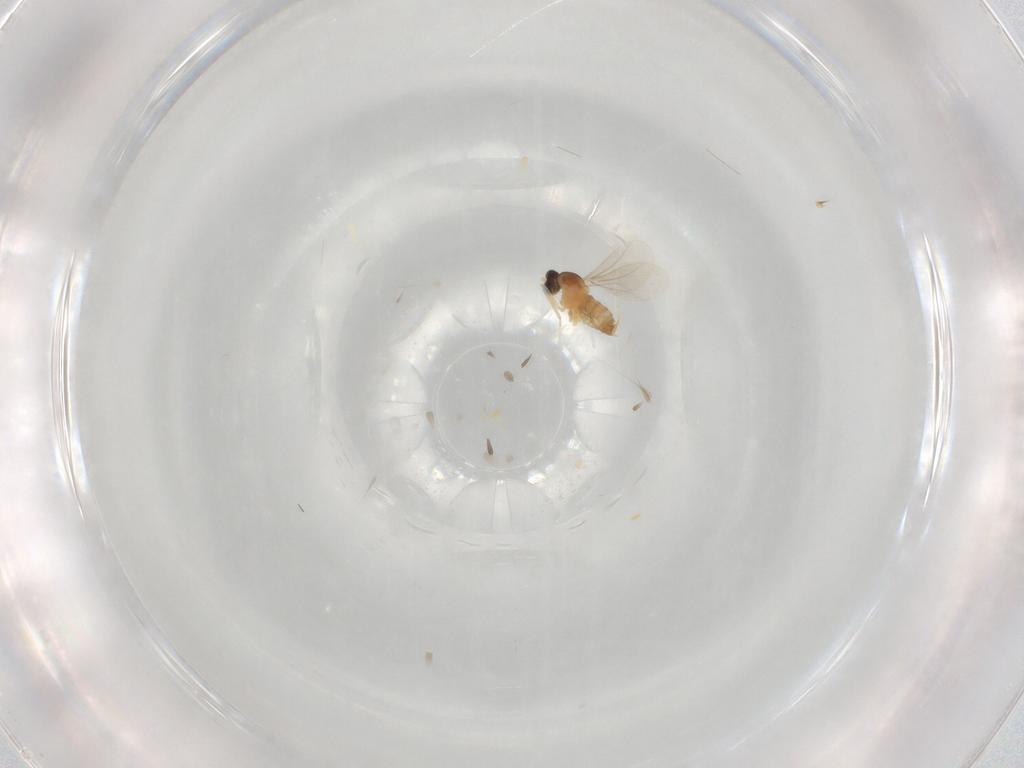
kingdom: Animalia
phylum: Arthropoda
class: Insecta
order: Diptera
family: Cecidomyiidae
